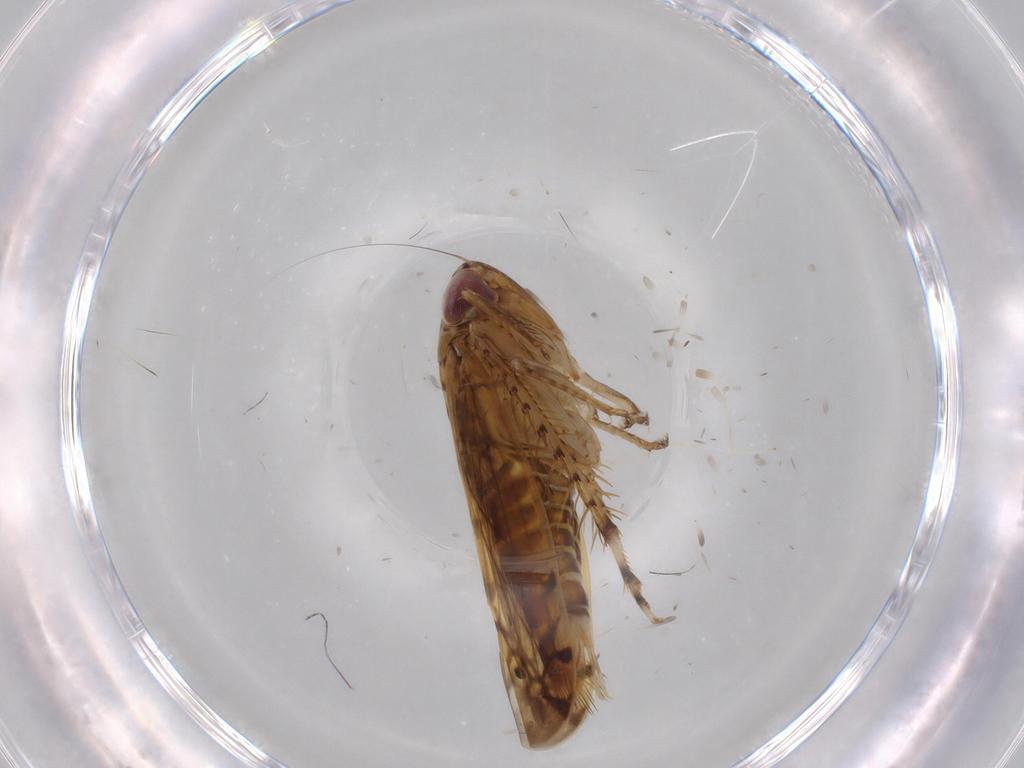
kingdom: Animalia
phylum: Arthropoda
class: Insecta
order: Hemiptera
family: Cicadellidae
